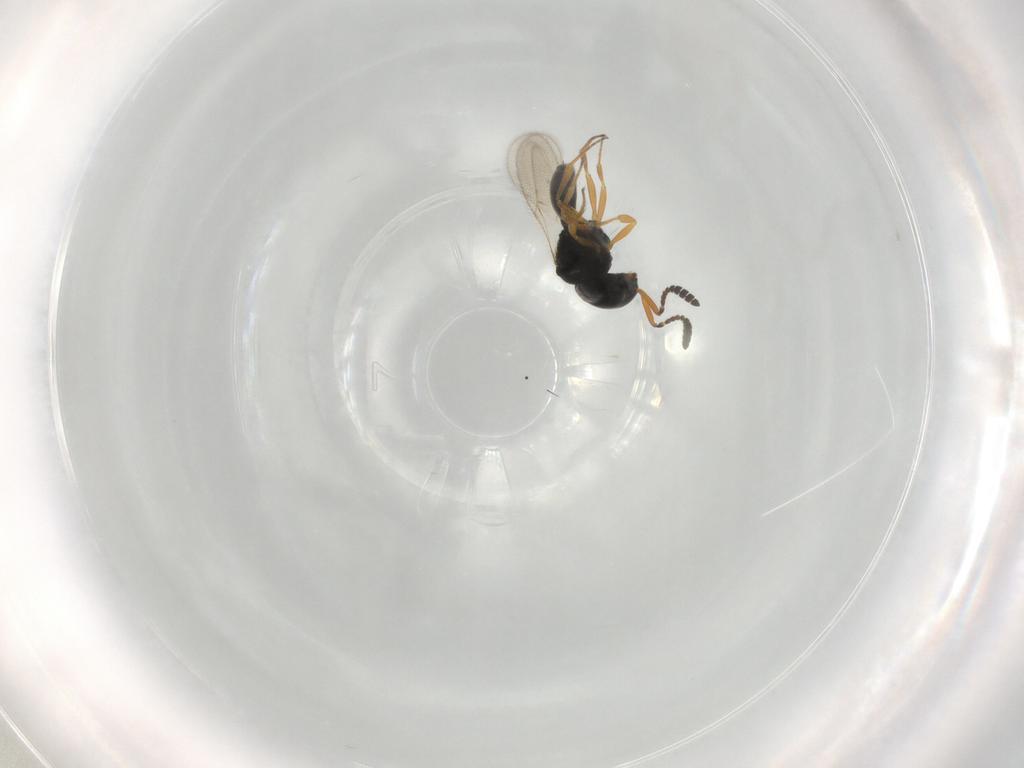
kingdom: Animalia
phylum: Arthropoda
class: Insecta
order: Hymenoptera
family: Scelionidae
